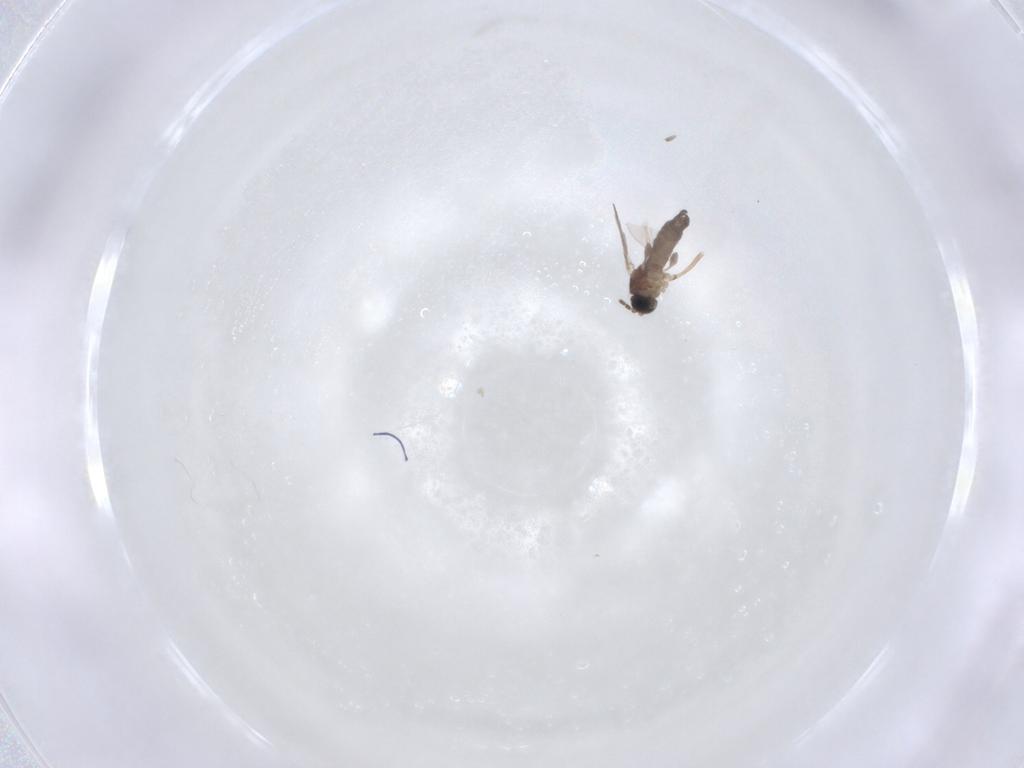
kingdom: Animalia
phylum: Arthropoda
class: Insecta
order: Diptera
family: Sciaridae
